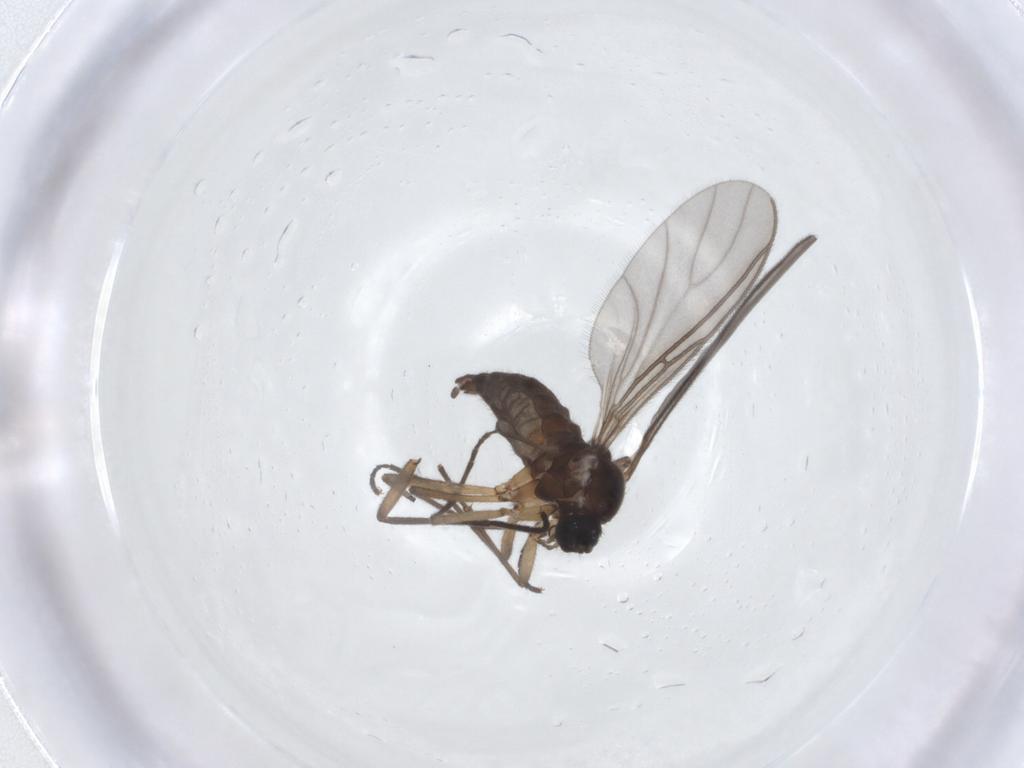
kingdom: Animalia
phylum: Arthropoda
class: Insecta
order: Diptera
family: Sciaridae
